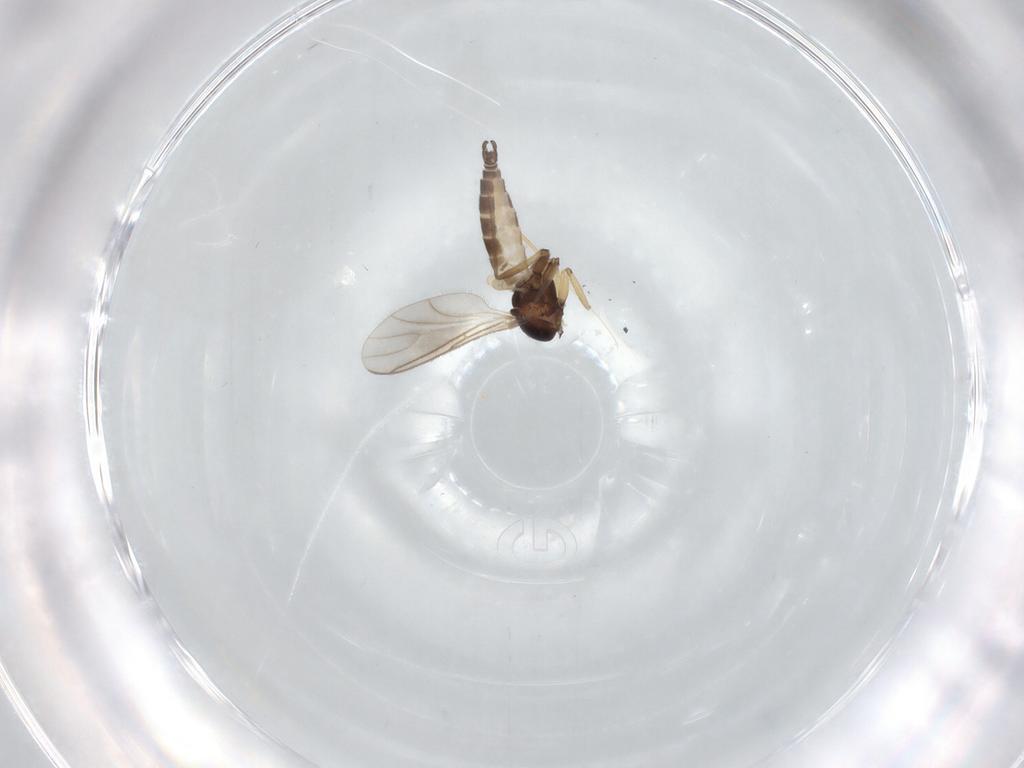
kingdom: Animalia
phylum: Arthropoda
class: Insecta
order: Diptera
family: Sciaridae
